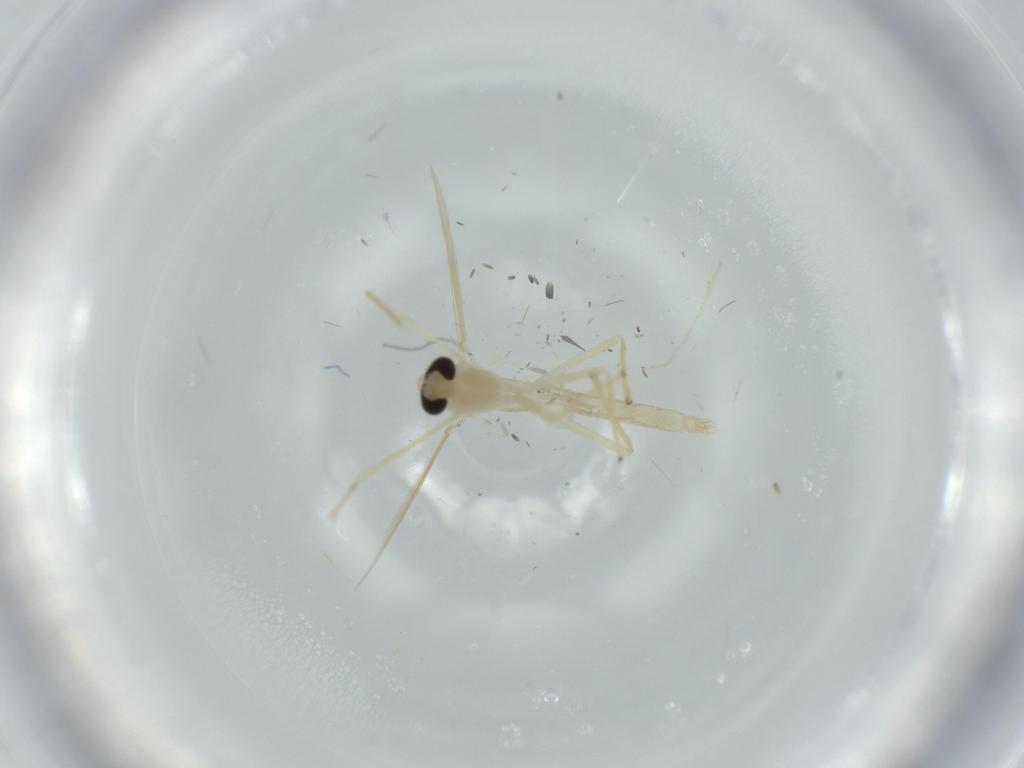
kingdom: Animalia
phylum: Arthropoda
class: Insecta
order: Diptera
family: Chironomidae
